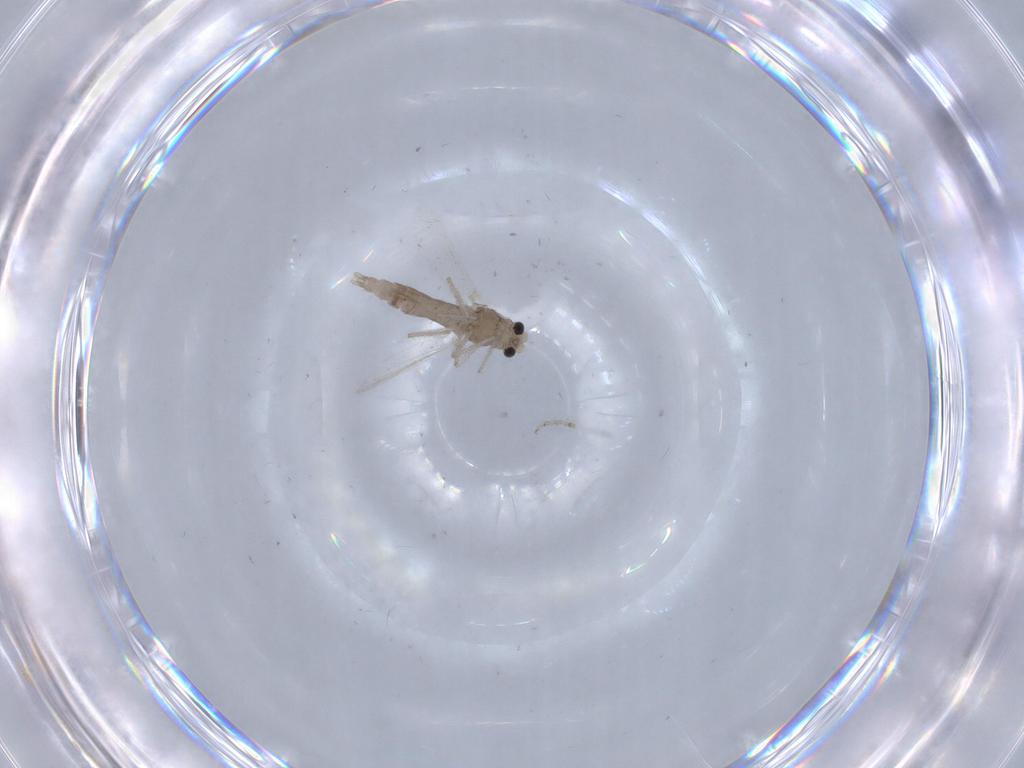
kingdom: Animalia
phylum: Arthropoda
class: Insecta
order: Diptera
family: Chironomidae
